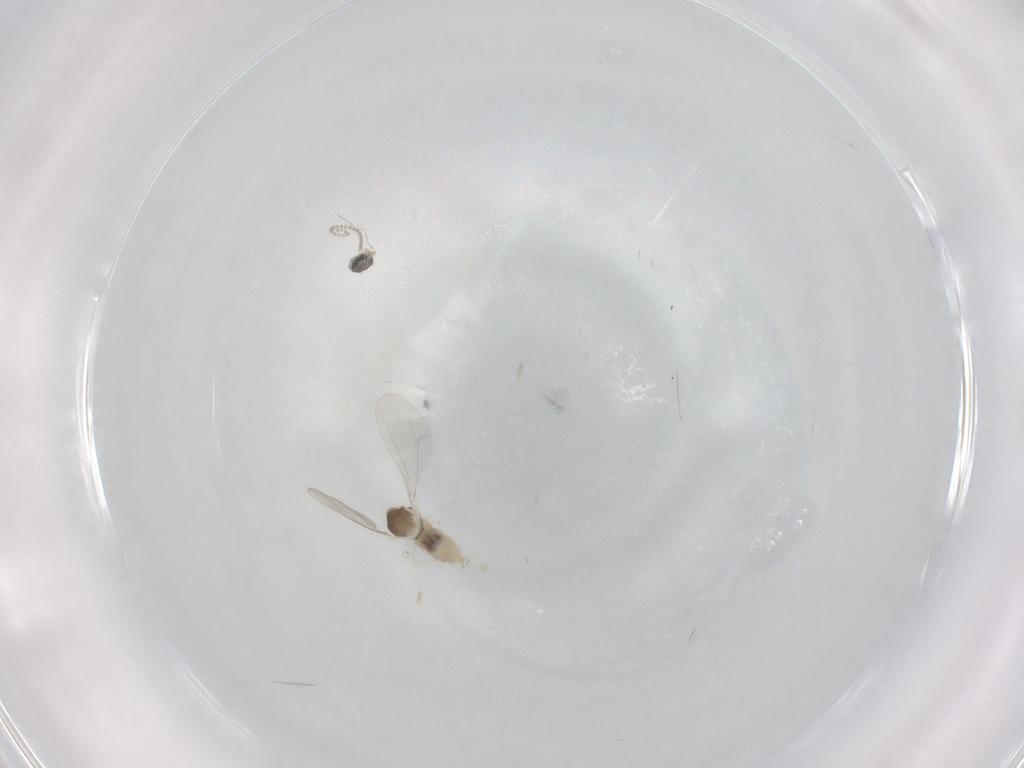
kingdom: Animalia
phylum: Arthropoda
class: Insecta
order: Diptera
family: Cecidomyiidae
